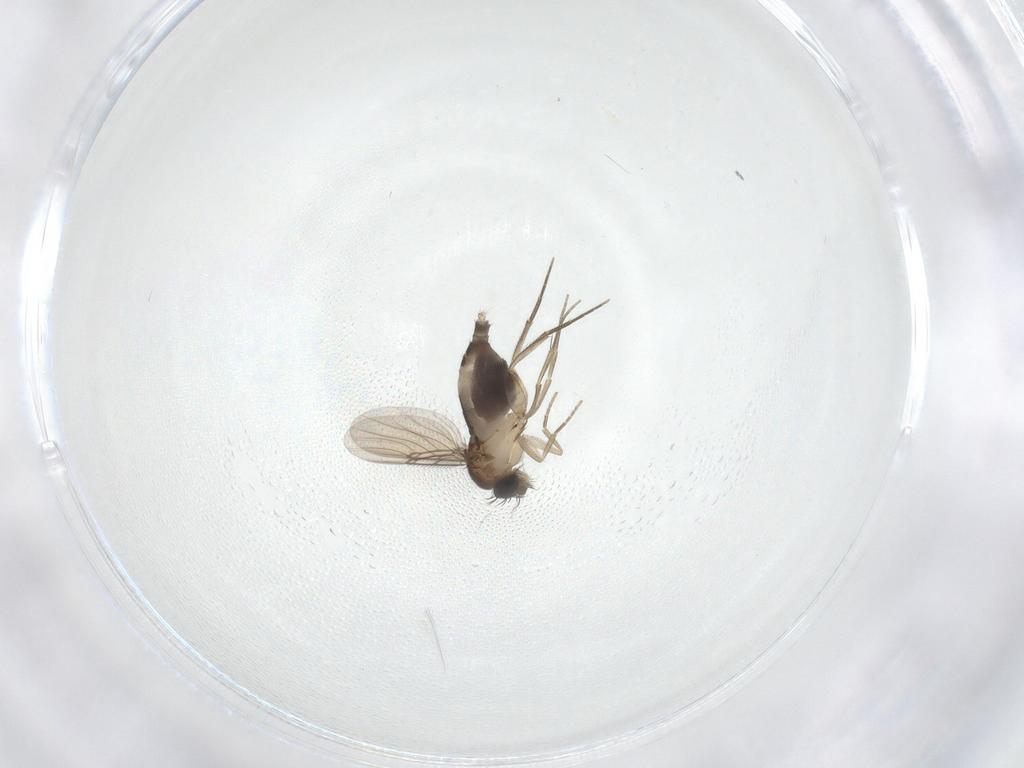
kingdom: Animalia
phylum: Arthropoda
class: Insecta
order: Diptera
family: Phoridae
